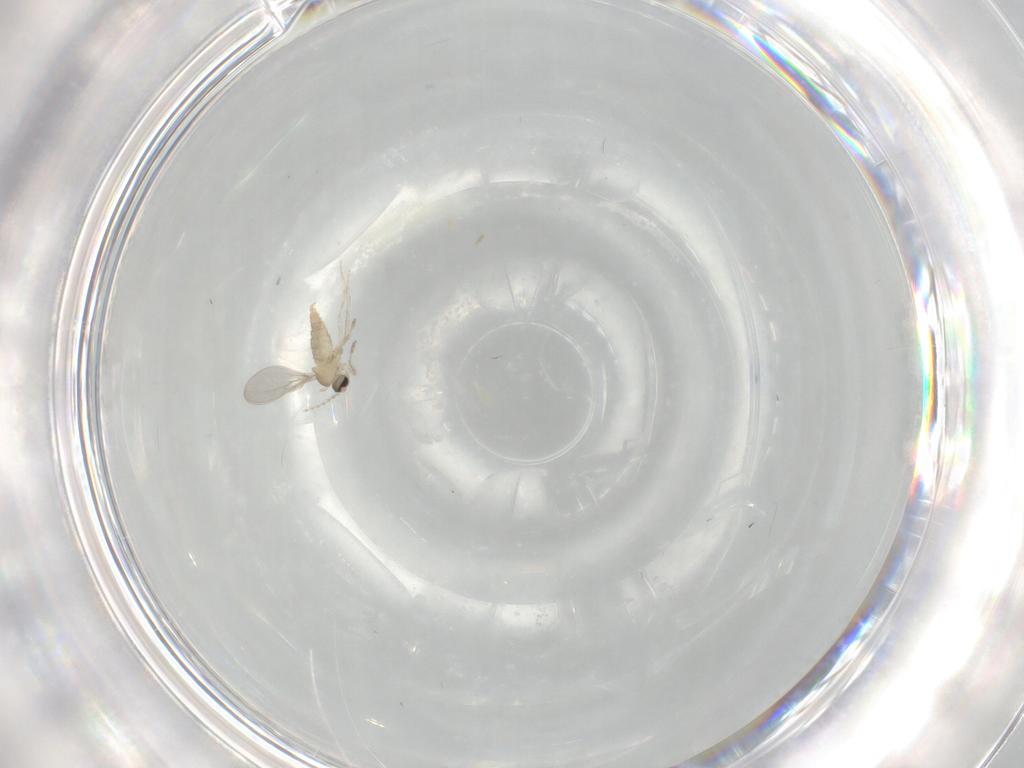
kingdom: Animalia
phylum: Arthropoda
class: Insecta
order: Diptera
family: Cecidomyiidae
